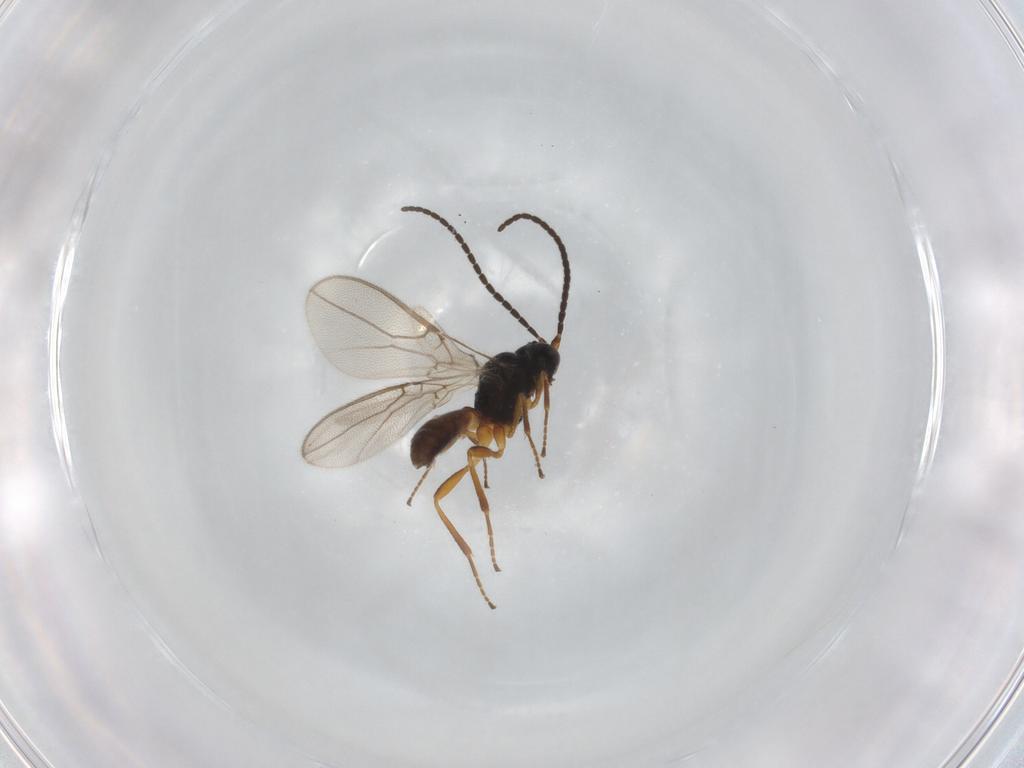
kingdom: Animalia
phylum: Arthropoda
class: Insecta
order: Hymenoptera
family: Braconidae
